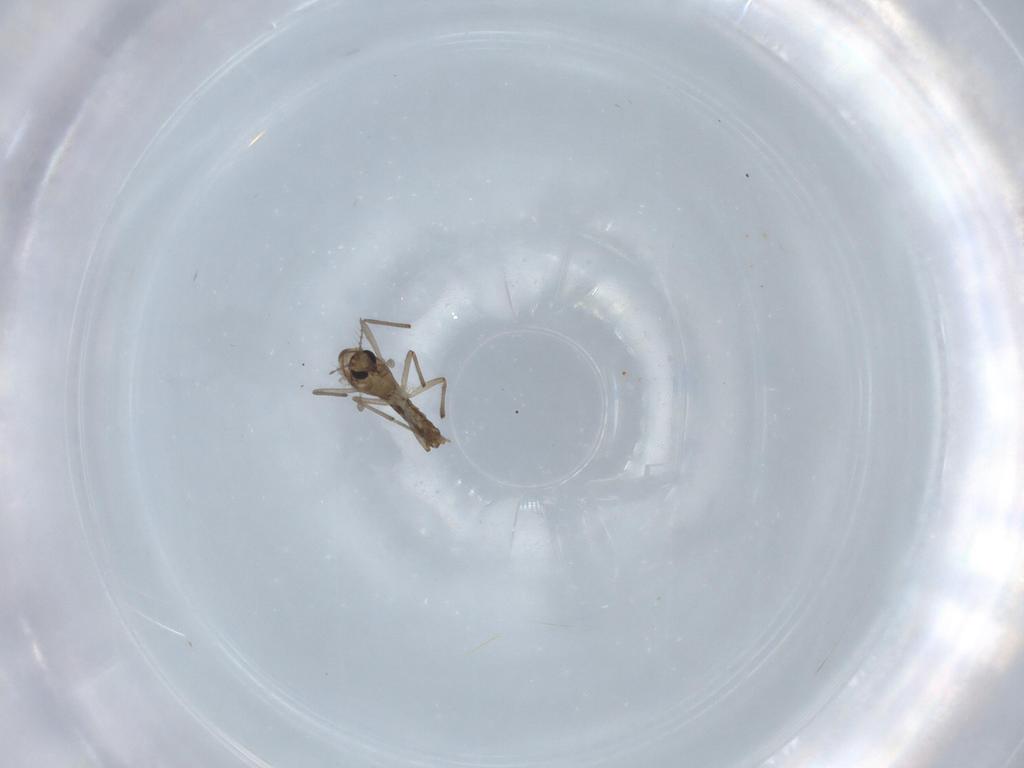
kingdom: Animalia
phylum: Arthropoda
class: Insecta
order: Diptera
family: Chironomidae
